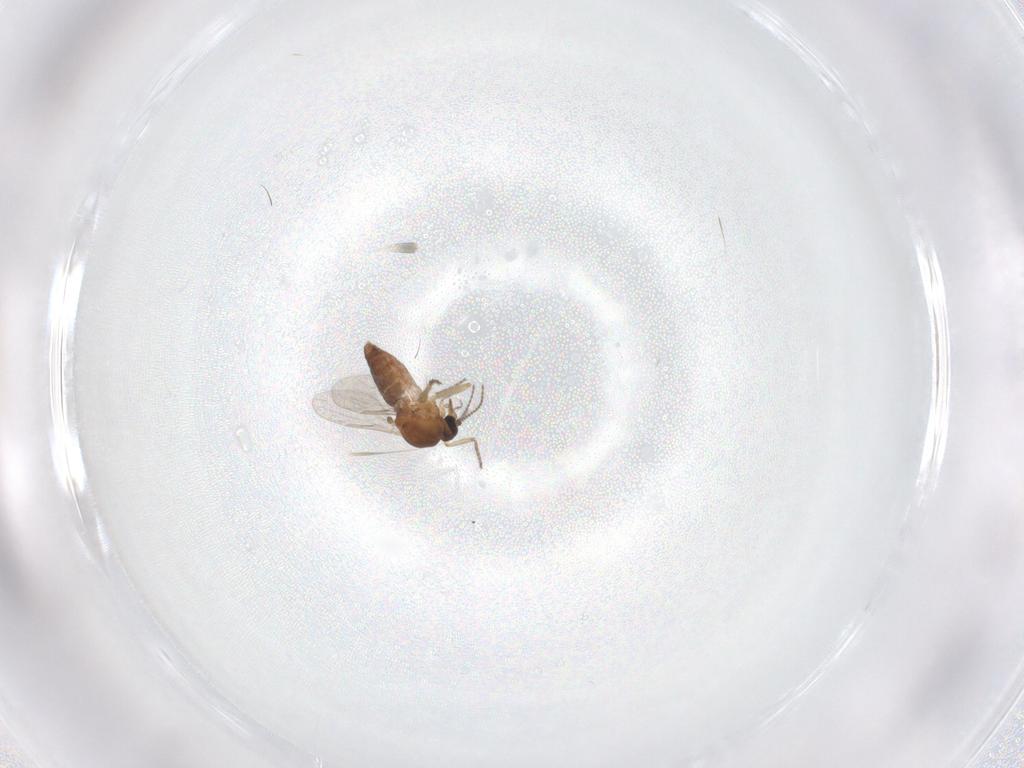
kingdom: Animalia
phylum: Arthropoda
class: Insecta
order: Diptera
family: Ceratopogonidae
